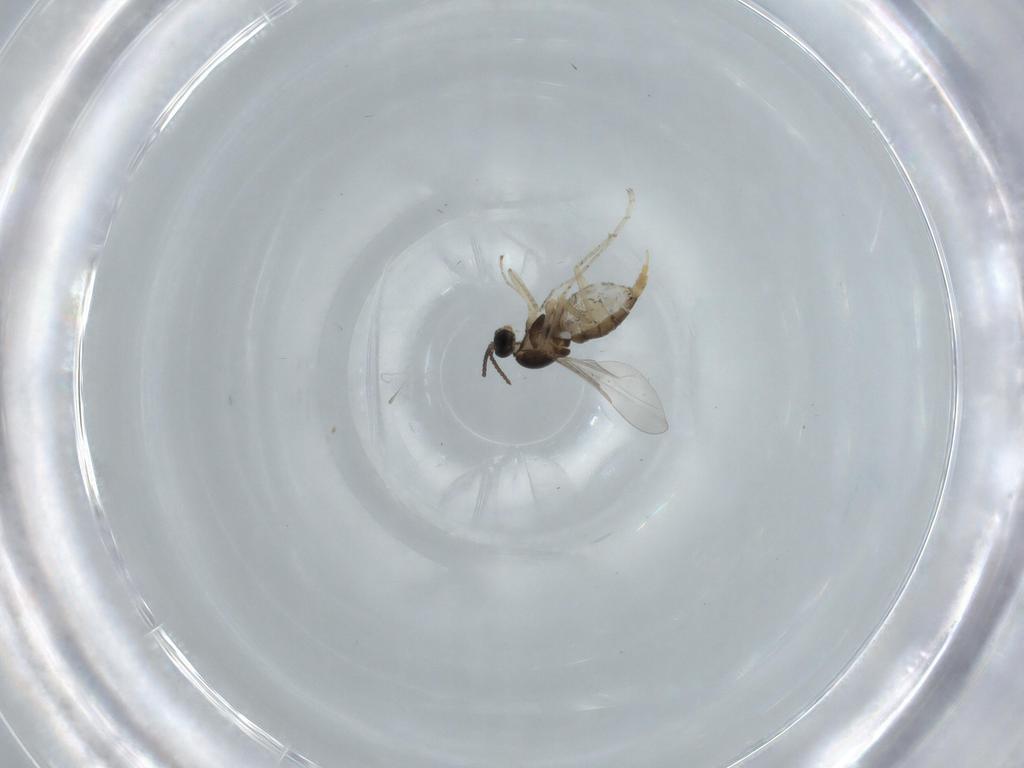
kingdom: Animalia
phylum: Arthropoda
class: Insecta
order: Diptera
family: Cecidomyiidae
